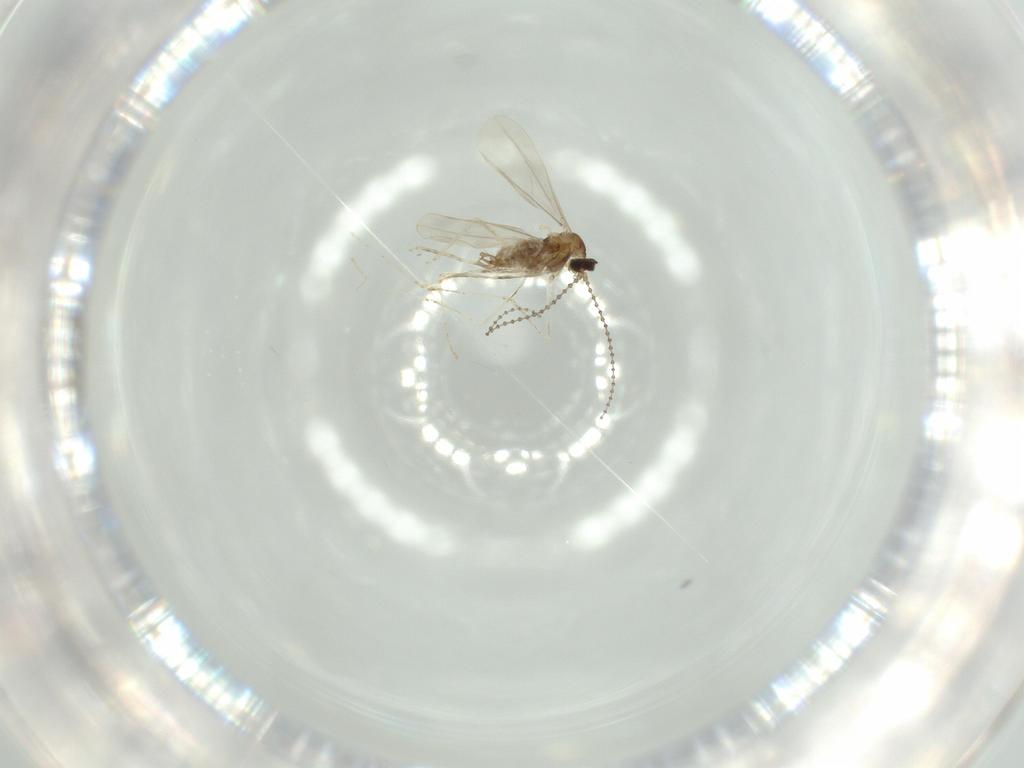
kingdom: Animalia
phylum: Arthropoda
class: Insecta
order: Diptera
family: Cecidomyiidae
